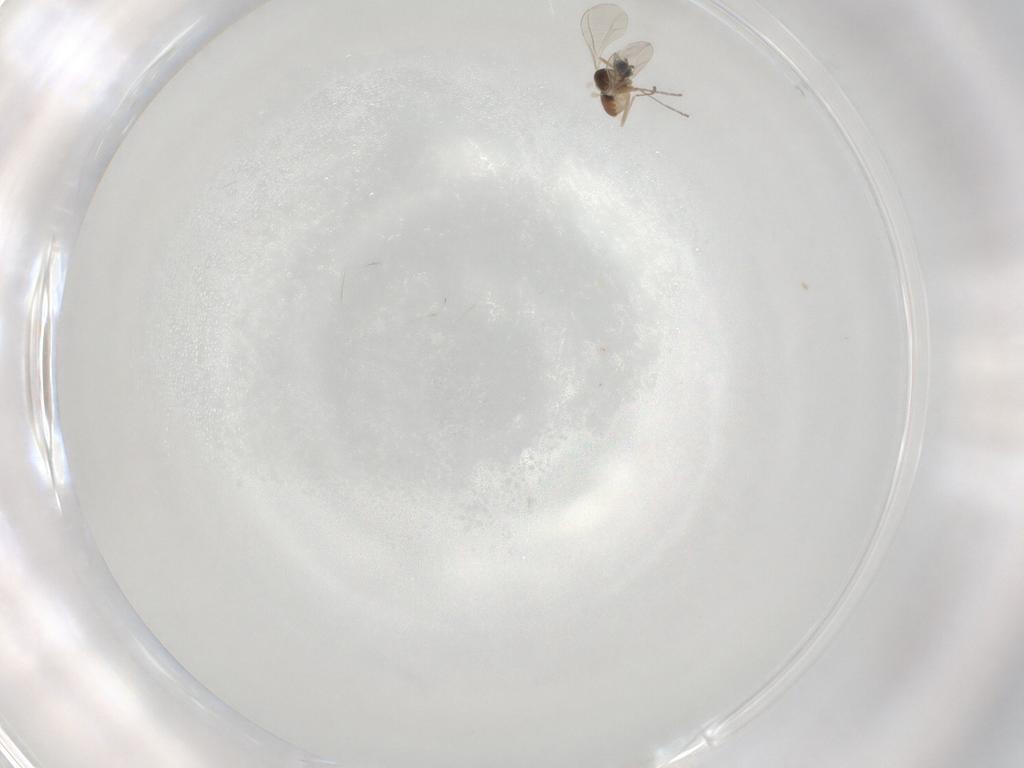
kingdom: Animalia
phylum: Arthropoda
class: Insecta
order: Diptera
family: Cecidomyiidae
